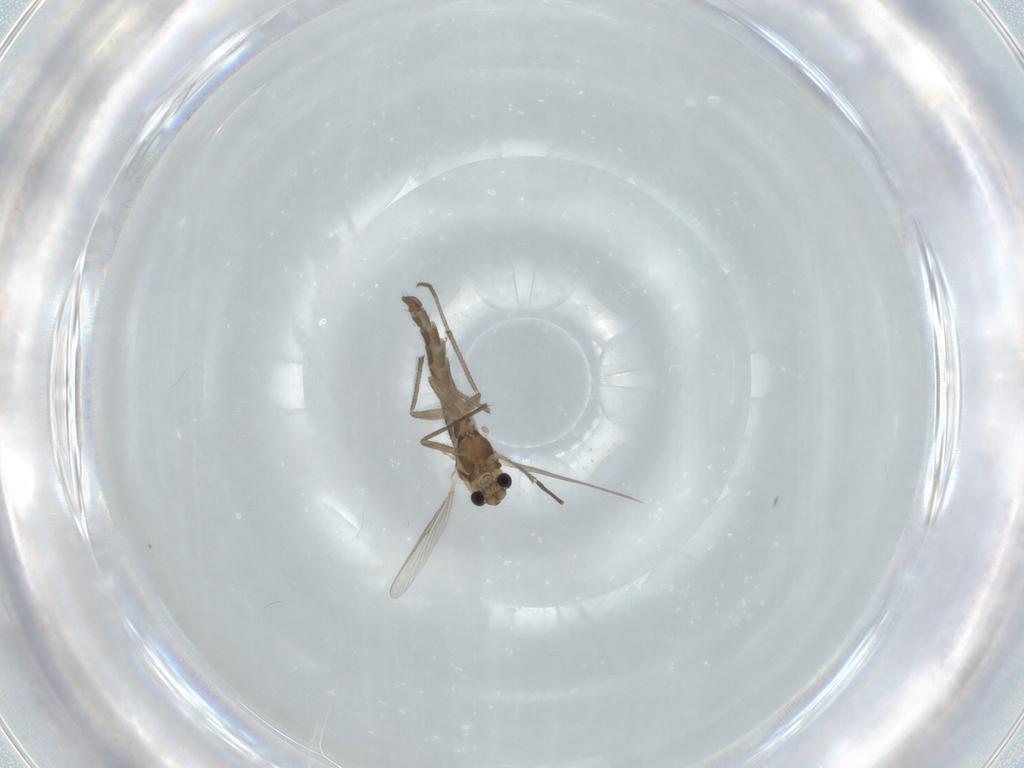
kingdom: Animalia
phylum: Arthropoda
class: Insecta
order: Diptera
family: Chironomidae
